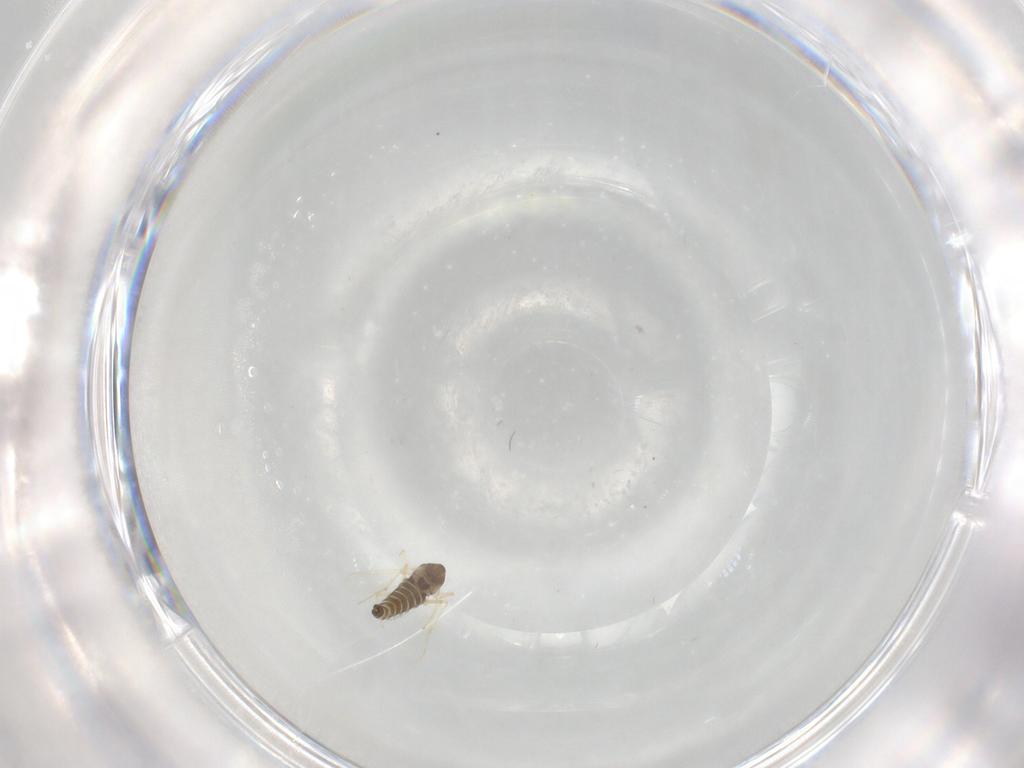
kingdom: Animalia
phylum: Arthropoda
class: Insecta
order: Diptera
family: Chironomidae
